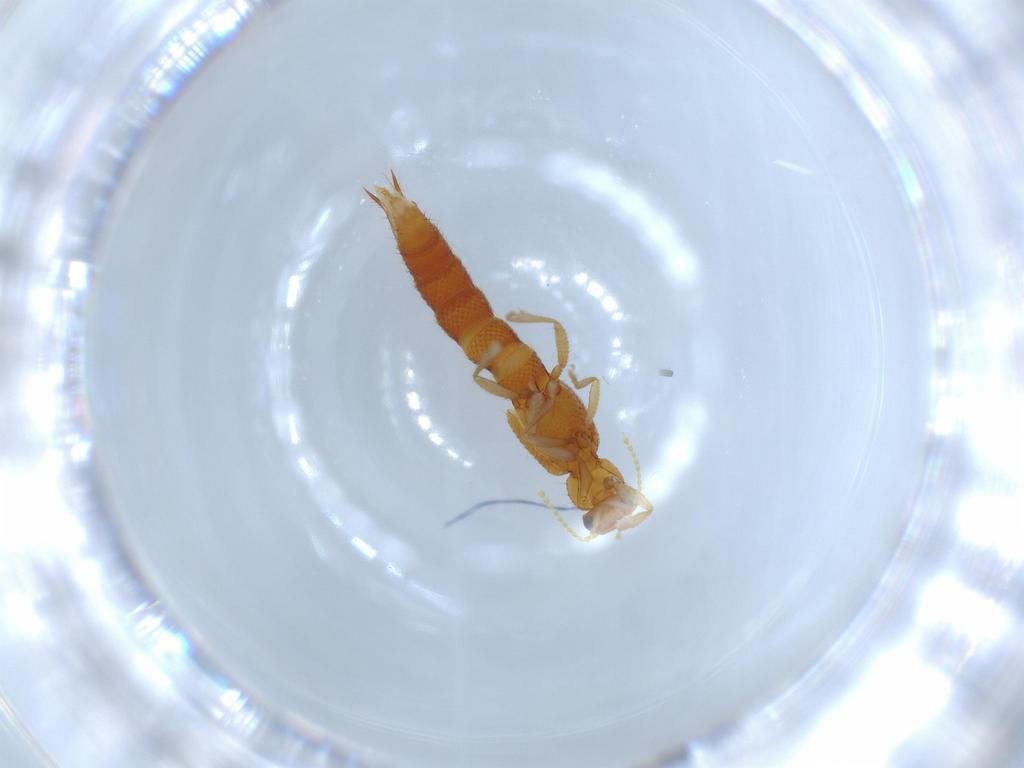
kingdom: Animalia
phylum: Arthropoda
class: Insecta
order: Coleoptera
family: Staphylinidae
